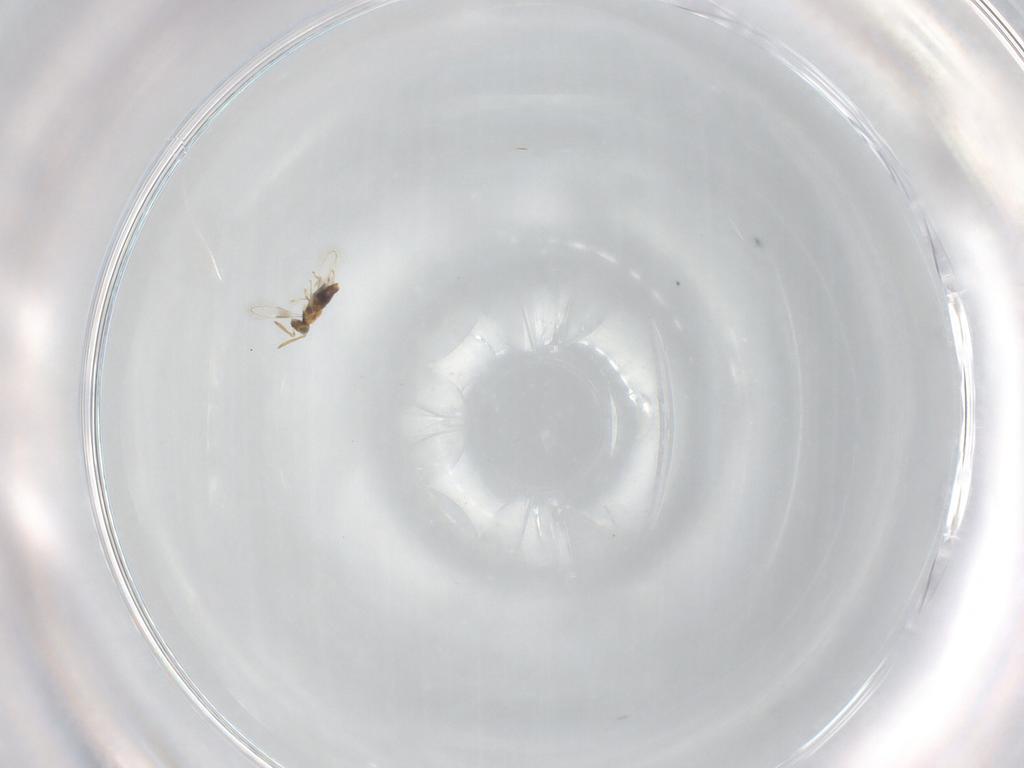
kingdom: Animalia
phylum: Arthropoda
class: Insecta
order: Hymenoptera
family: Aphelinidae
